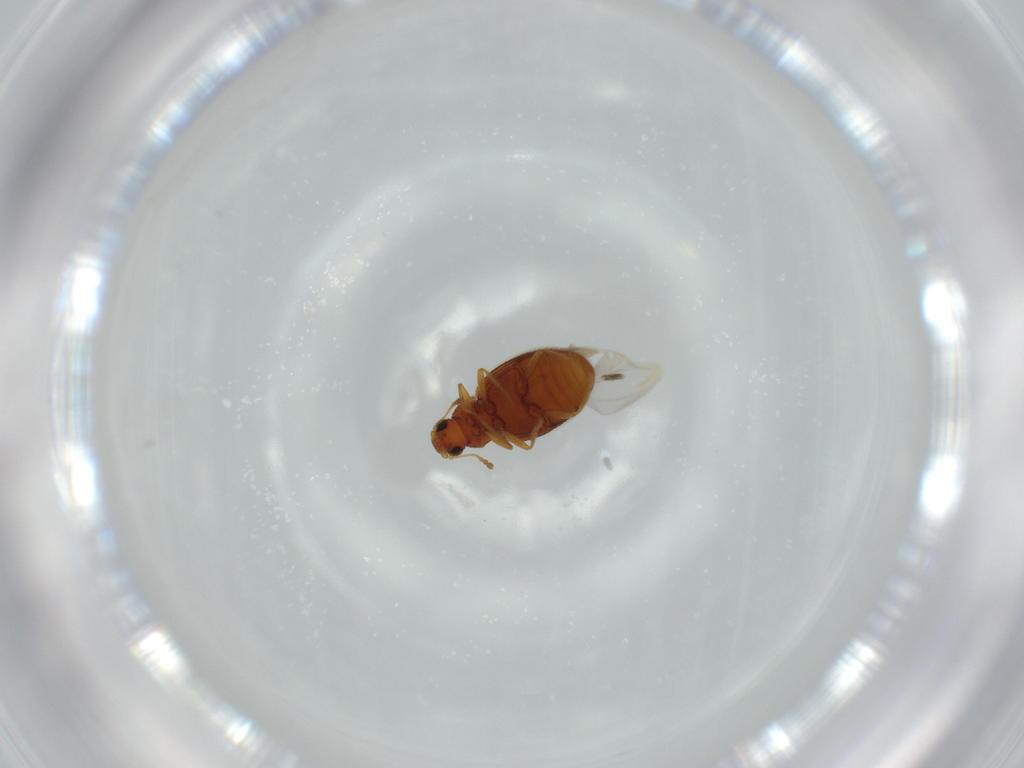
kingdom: Animalia
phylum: Arthropoda
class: Insecta
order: Coleoptera
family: Latridiidae
